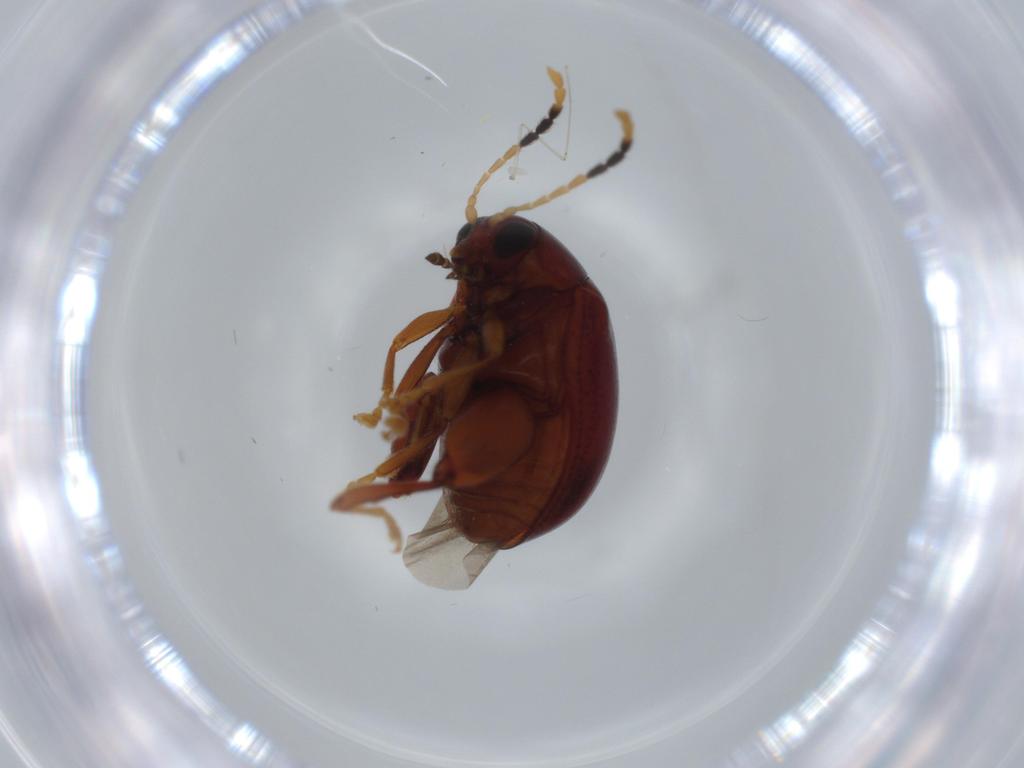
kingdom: Animalia
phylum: Arthropoda
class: Insecta
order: Coleoptera
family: Chrysomelidae
